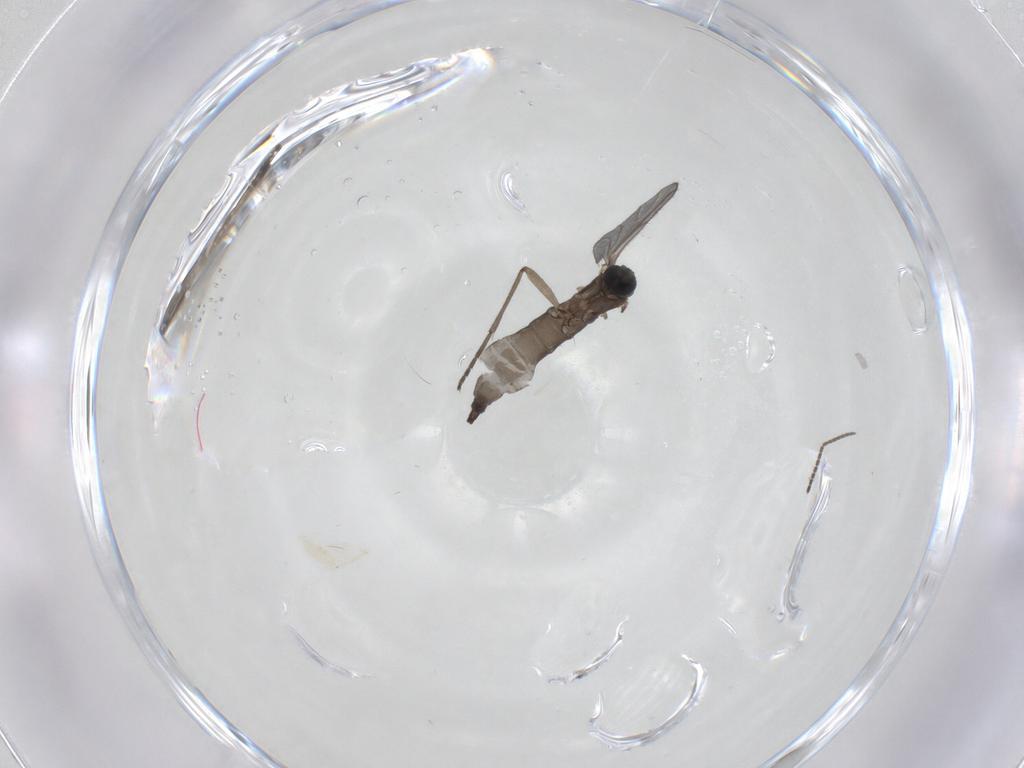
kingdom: Animalia
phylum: Arthropoda
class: Insecta
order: Diptera
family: Sciaridae
